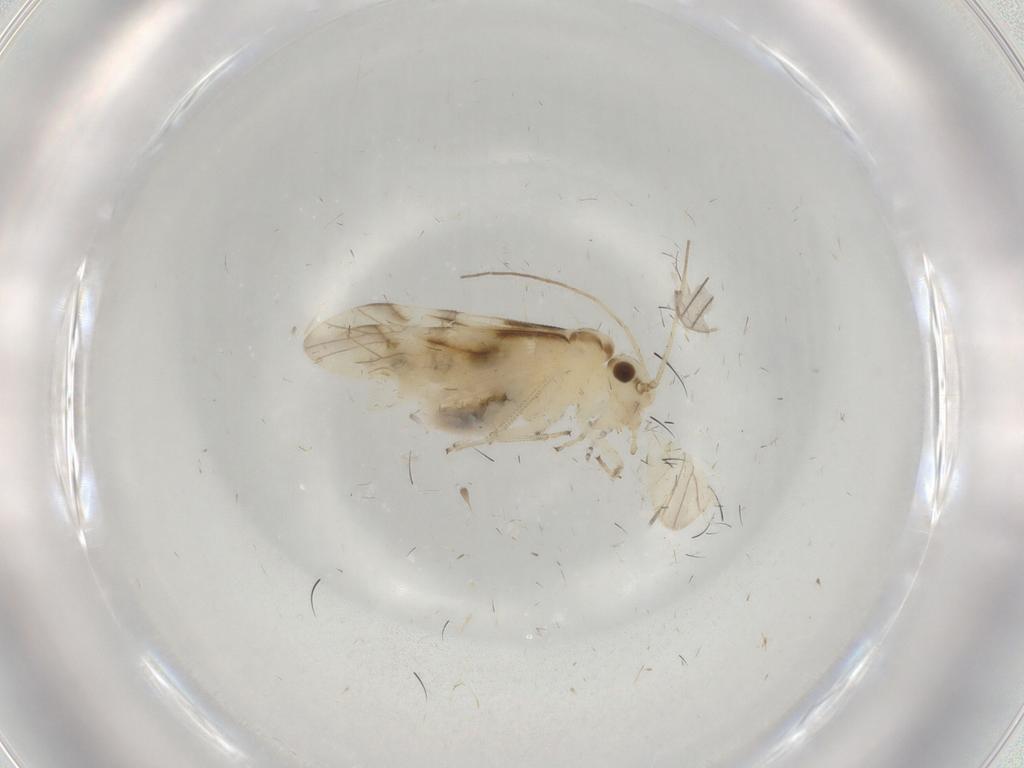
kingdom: Animalia
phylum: Arthropoda
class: Insecta
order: Psocodea
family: Caeciliusidae
